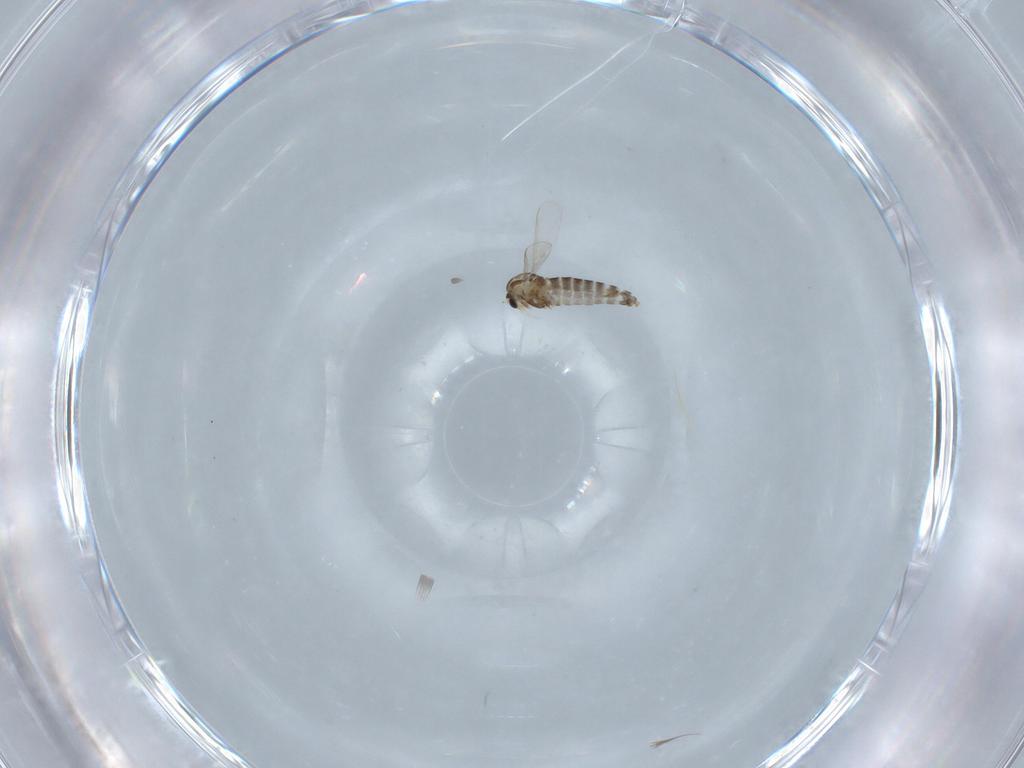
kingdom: Animalia
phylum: Arthropoda
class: Insecta
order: Diptera
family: Chironomidae
